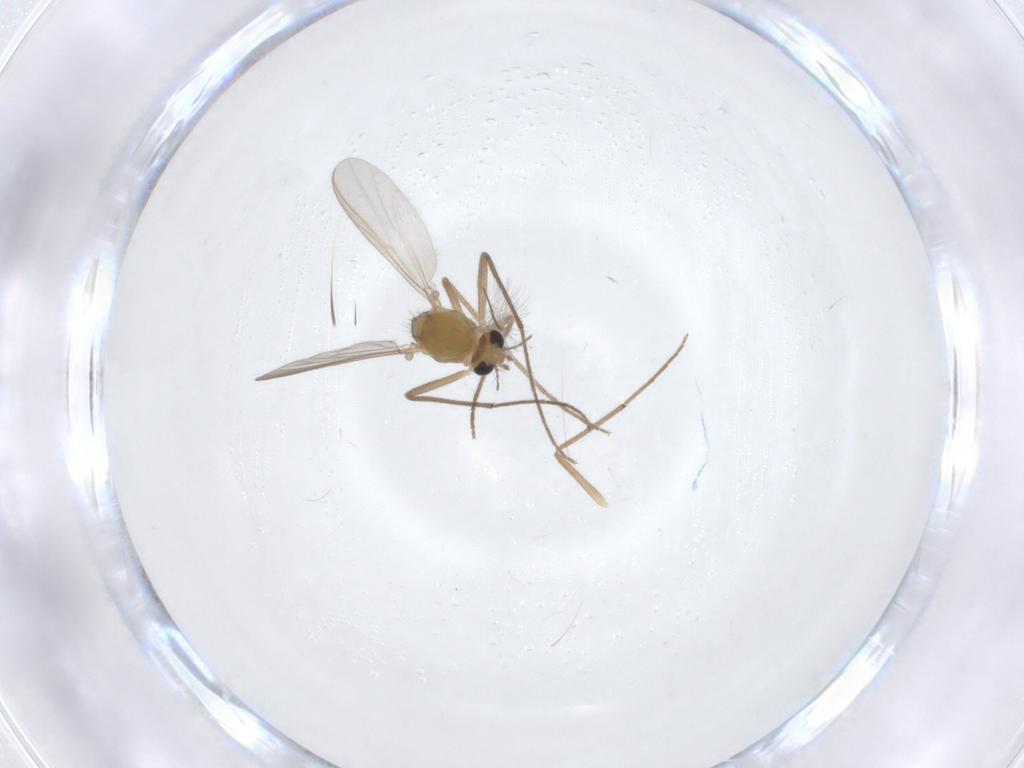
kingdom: Animalia
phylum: Arthropoda
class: Insecta
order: Diptera
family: Chironomidae
